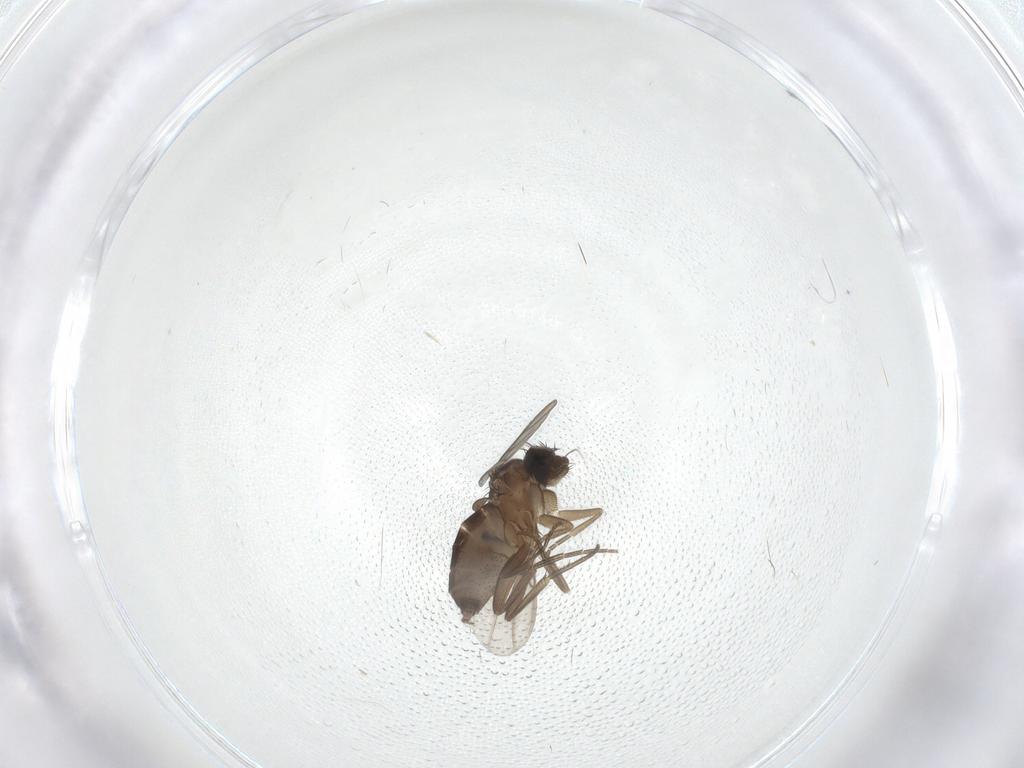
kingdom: Animalia
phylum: Arthropoda
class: Insecta
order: Diptera
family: Phoridae
